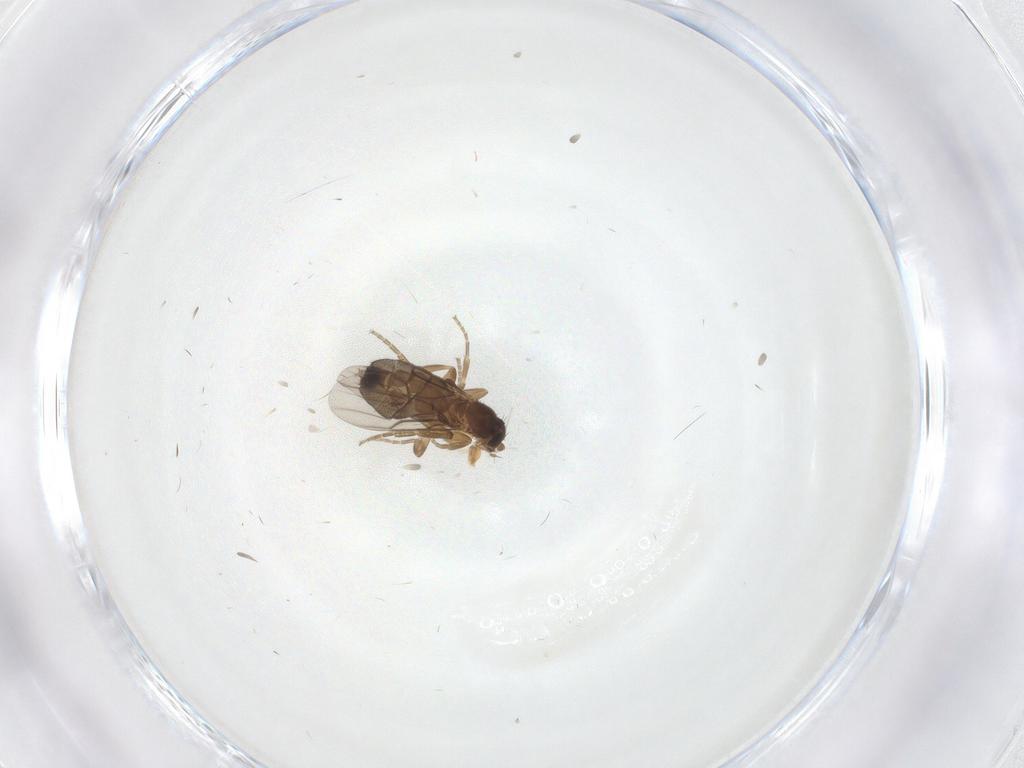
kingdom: Animalia
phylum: Arthropoda
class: Insecta
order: Diptera
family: Phoridae
